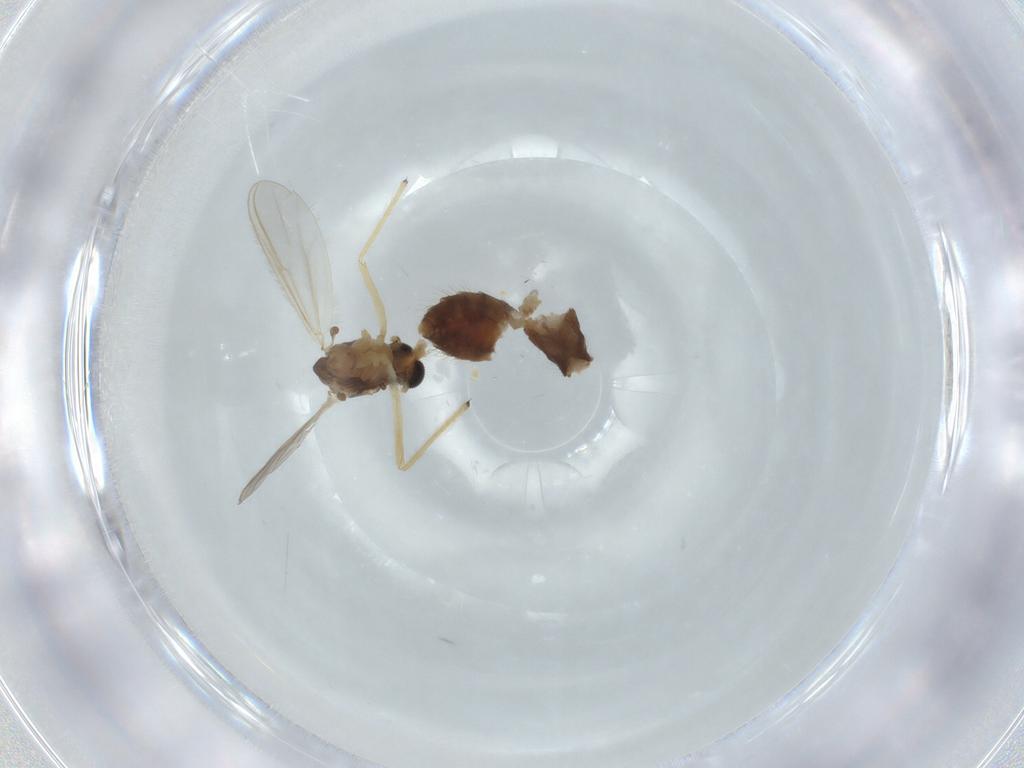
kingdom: Animalia
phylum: Arthropoda
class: Insecta
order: Diptera
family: Chironomidae
